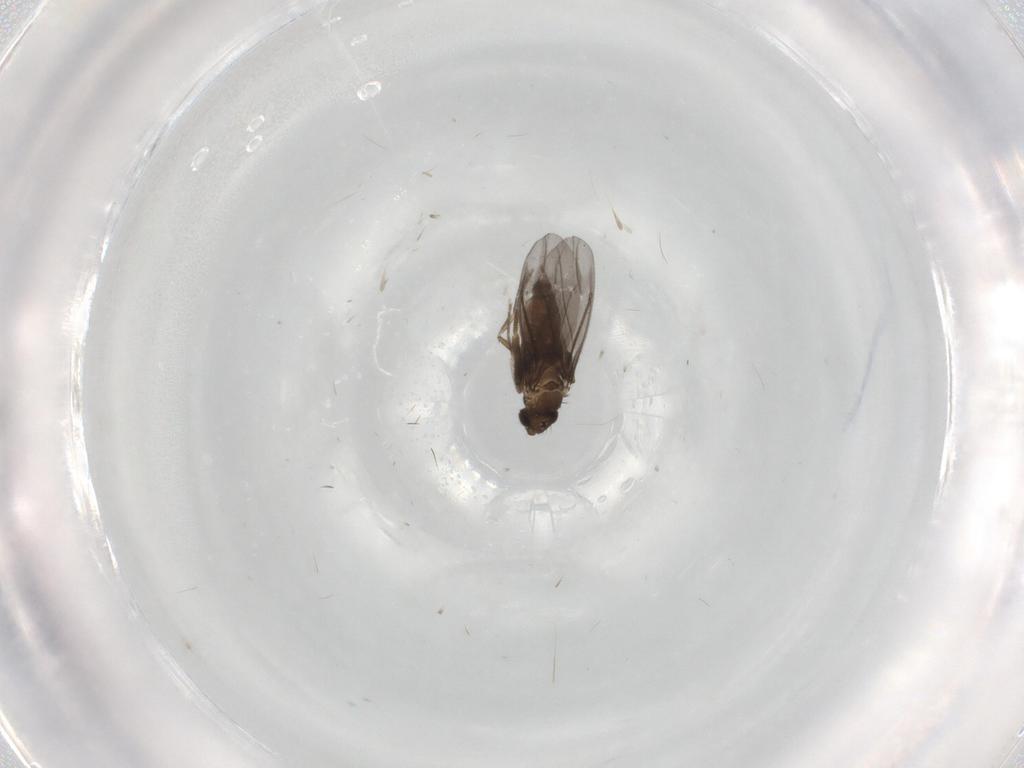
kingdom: Animalia
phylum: Arthropoda
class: Insecta
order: Diptera
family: Phoridae
